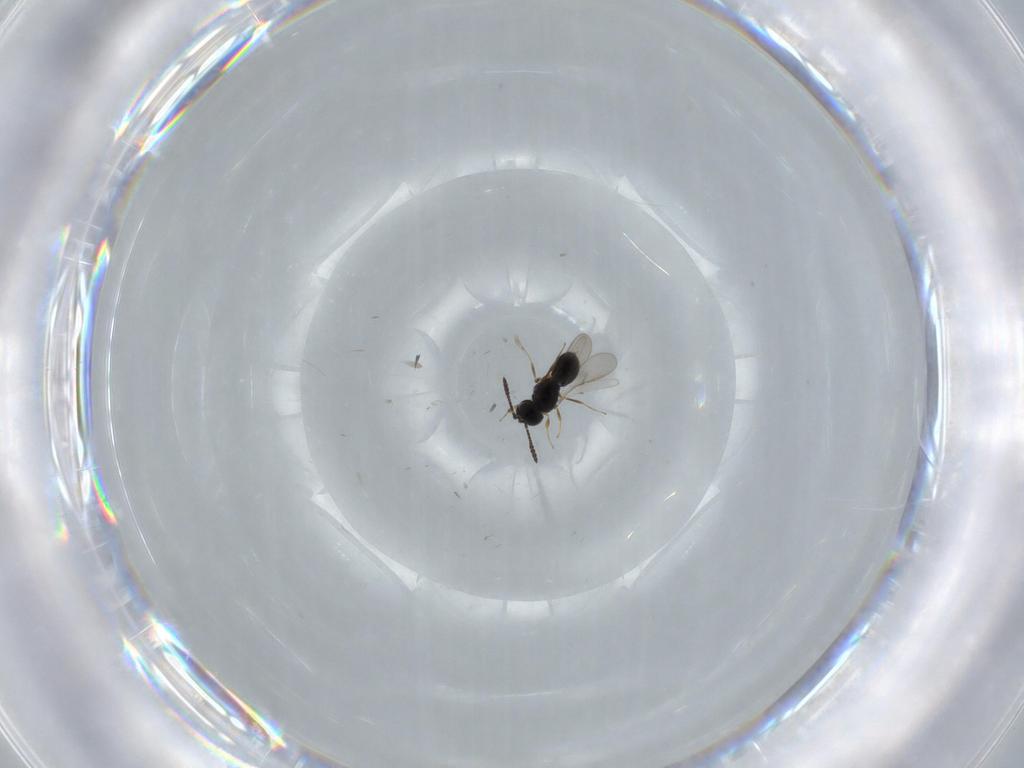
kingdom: Animalia
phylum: Arthropoda
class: Insecta
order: Hymenoptera
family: Scelionidae
